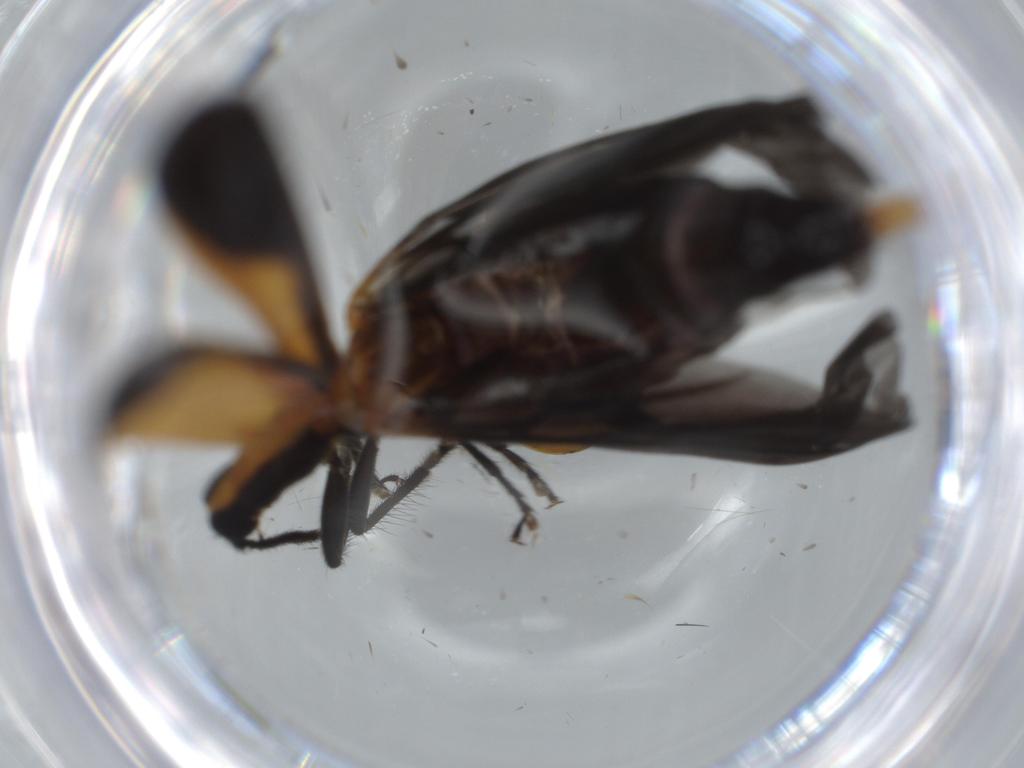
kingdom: Animalia
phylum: Arthropoda
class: Insecta
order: Coleoptera
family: Cleridae
